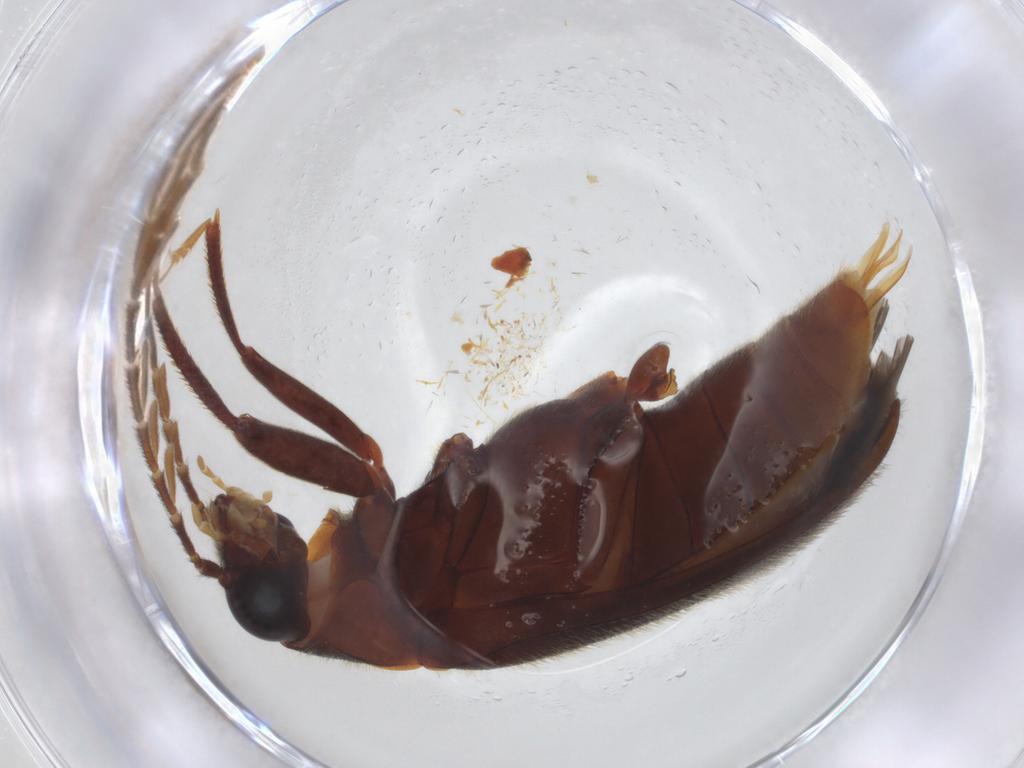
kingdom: Animalia
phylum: Arthropoda
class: Insecta
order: Coleoptera
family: Ptilodactylidae
